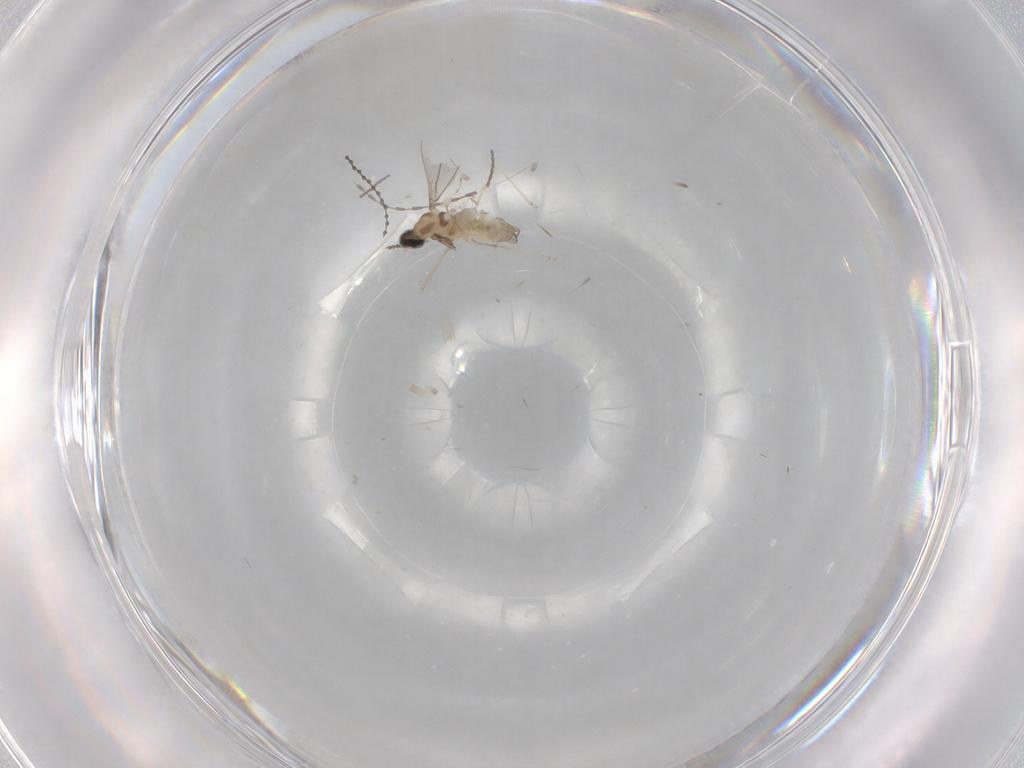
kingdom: Animalia
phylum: Arthropoda
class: Insecta
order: Diptera
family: Cecidomyiidae
